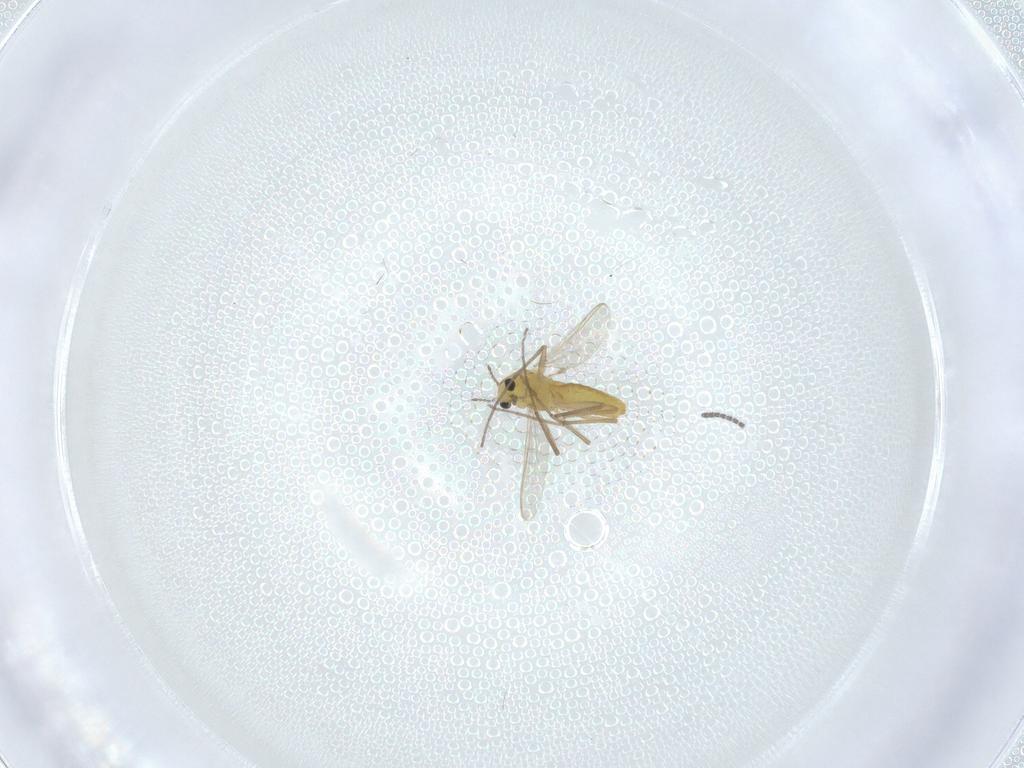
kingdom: Animalia
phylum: Arthropoda
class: Insecta
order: Diptera
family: Chironomidae
